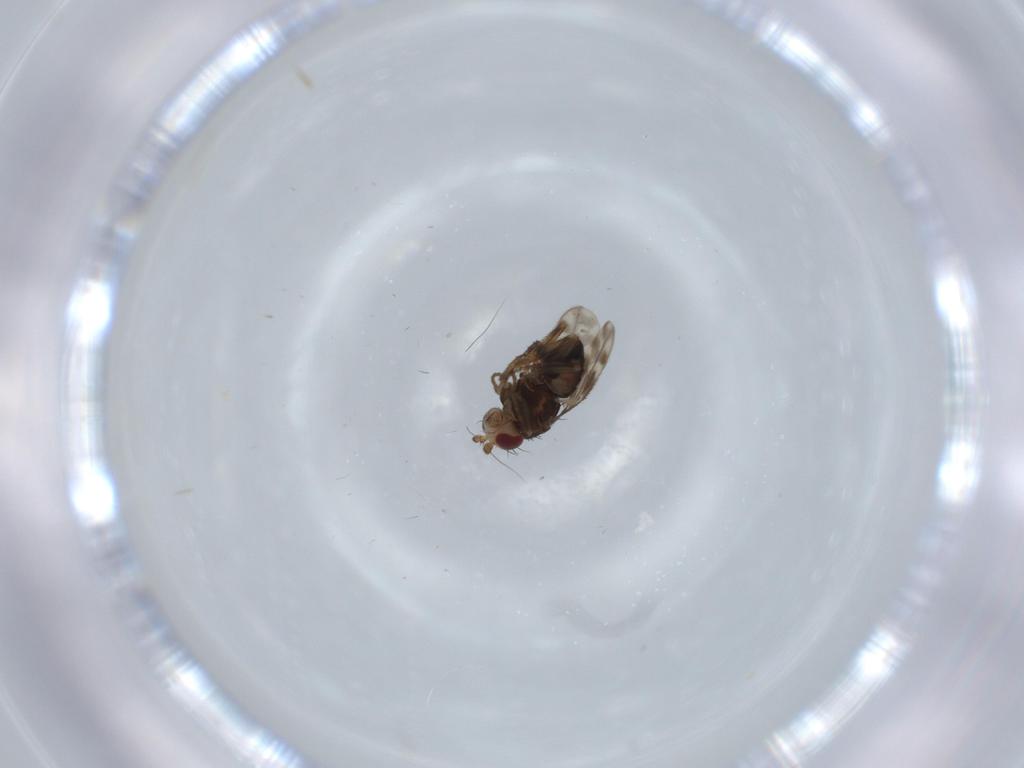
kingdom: Animalia
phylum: Arthropoda
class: Insecta
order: Diptera
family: Sphaeroceridae
